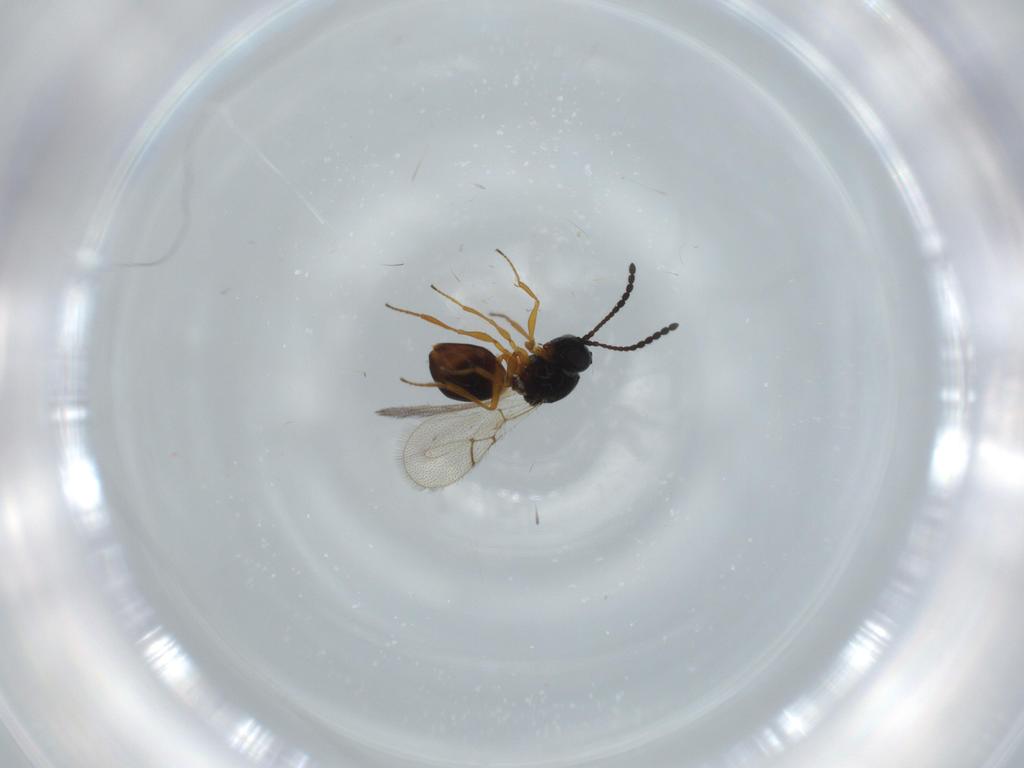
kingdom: Animalia
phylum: Arthropoda
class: Insecta
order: Hymenoptera
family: Figitidae
